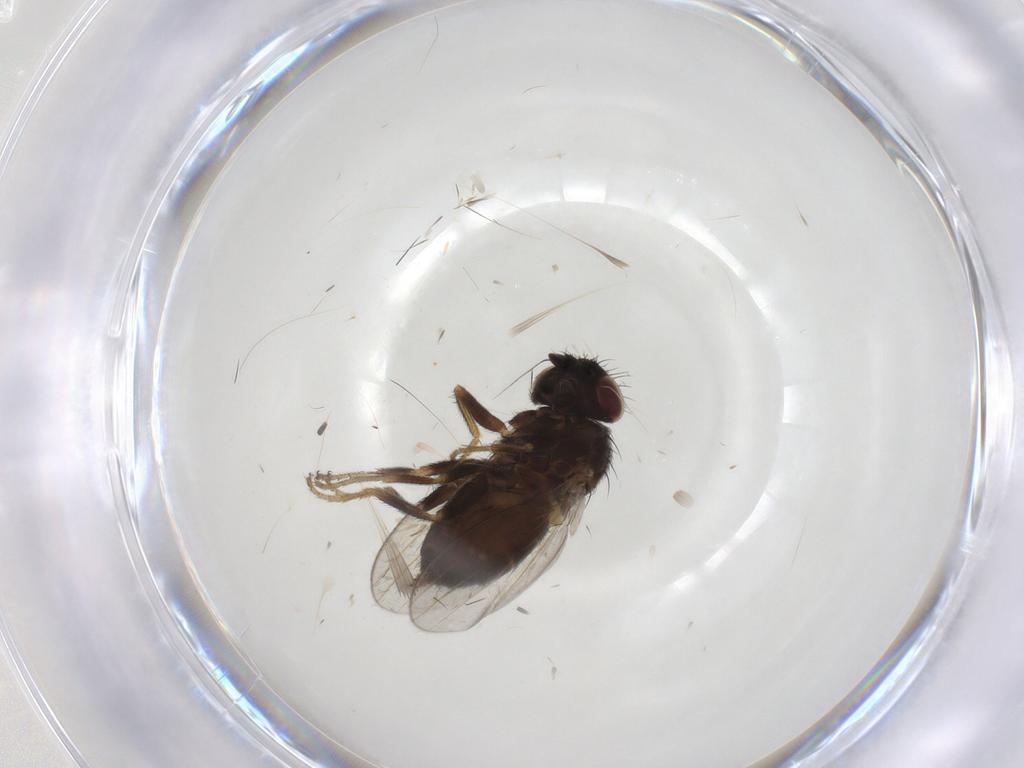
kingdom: Animalia
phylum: Arthropoda
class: Insecta
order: Diptera
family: Milichiidae
